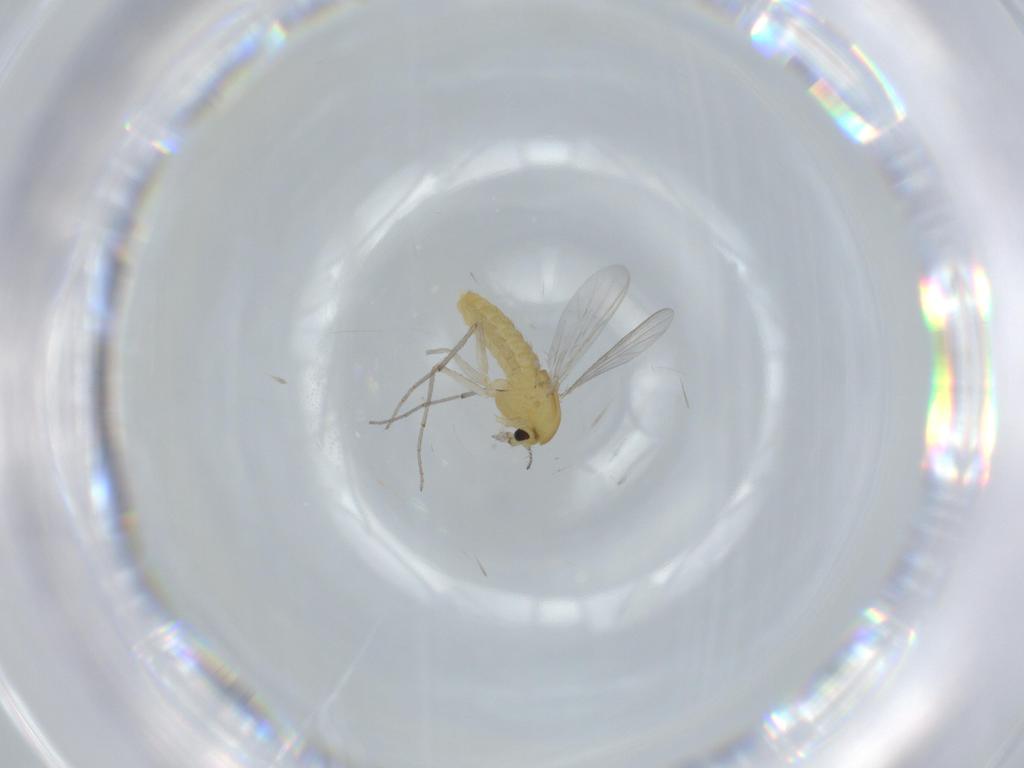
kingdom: Animalia
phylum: Arthropoda
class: Insecta
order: Diptera
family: Chironomidae
